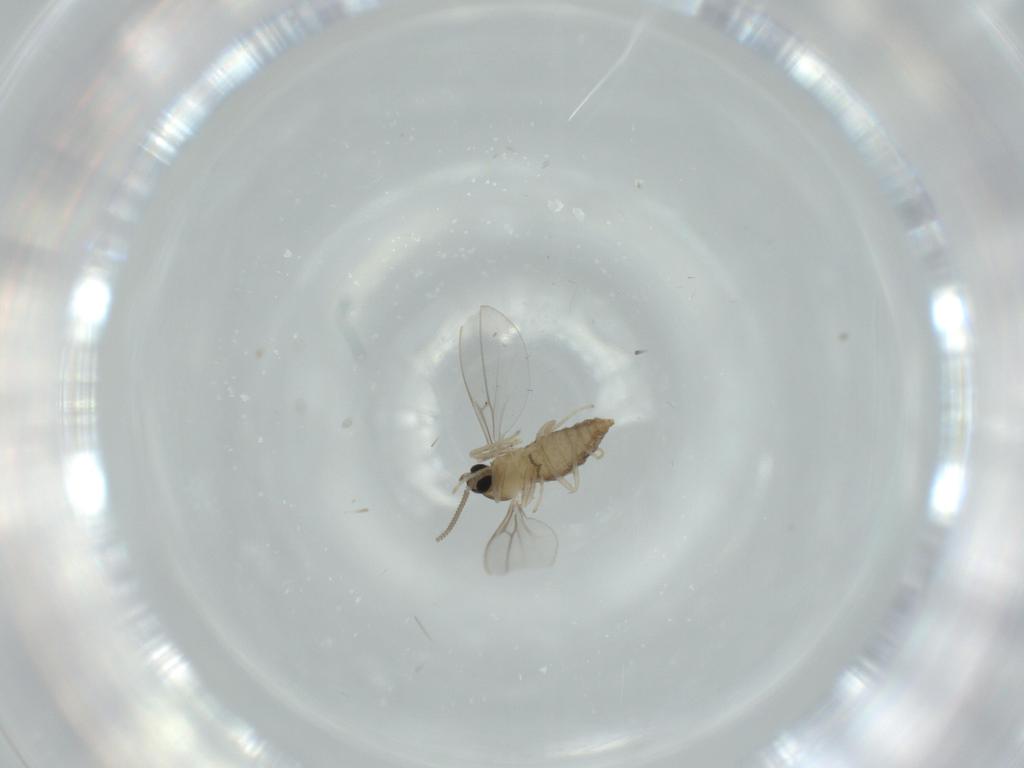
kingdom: Animalia
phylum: Arthropoda
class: Insecta
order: Diptera
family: Cecidomyiidae
